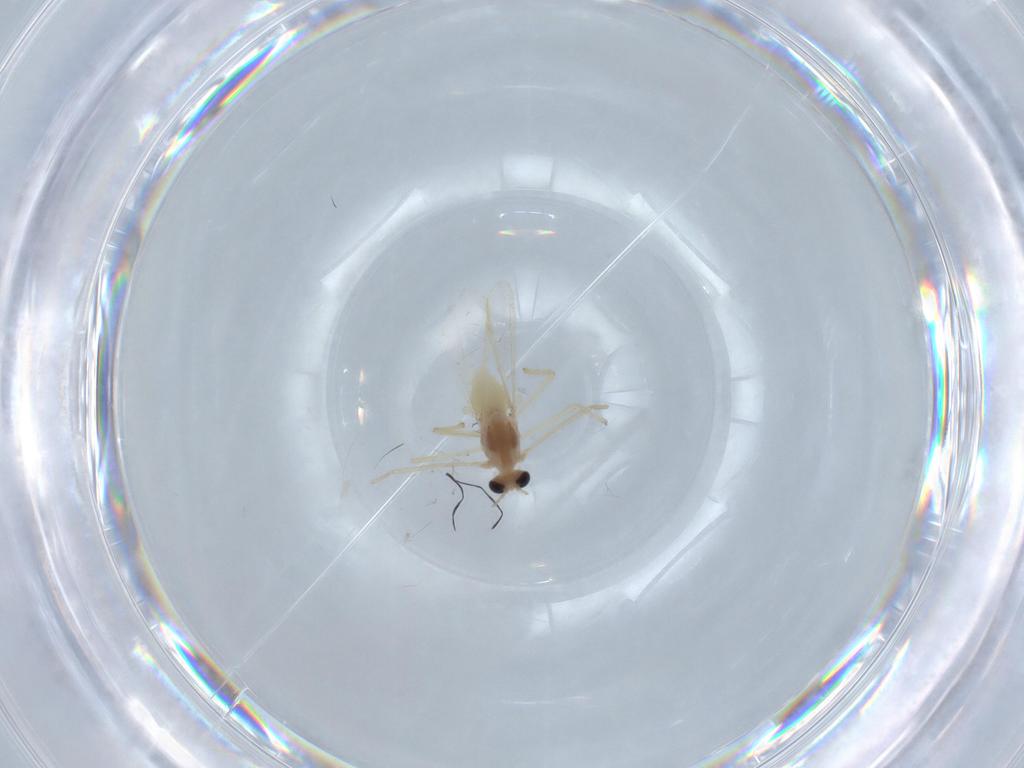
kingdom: Animalia
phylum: Arthropoda
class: Insecta
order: Diptera
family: Chironomidae
